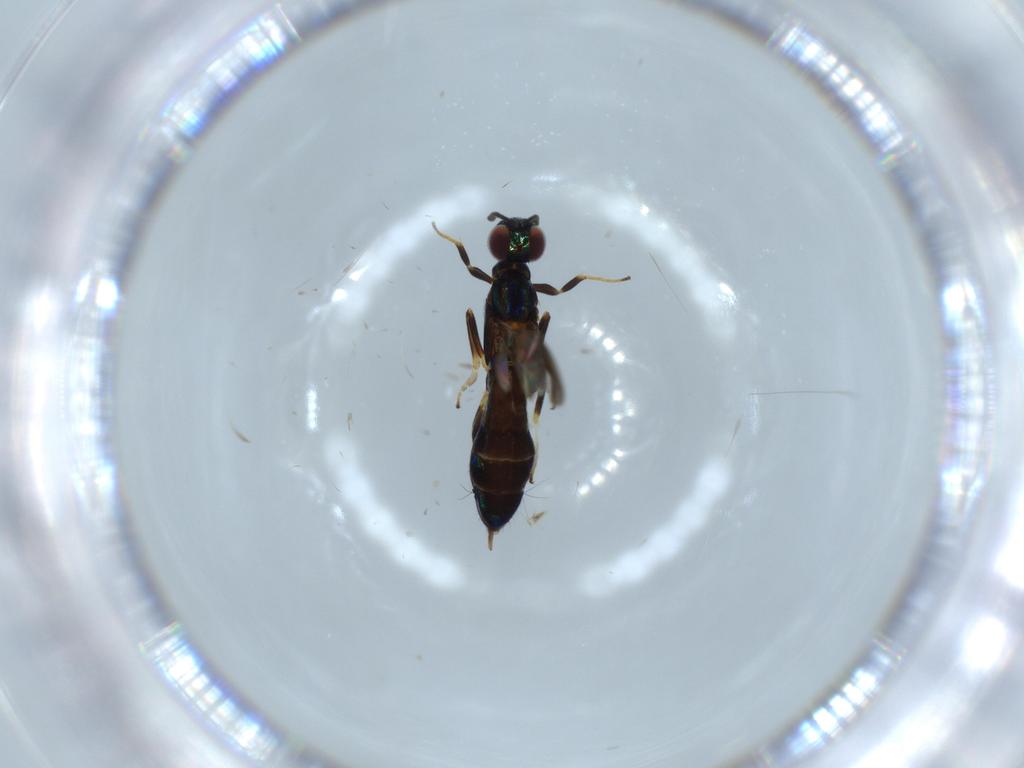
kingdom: Animalia
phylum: Arthropoda
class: Insecta
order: Hymenoptera
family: Eupelmidae
